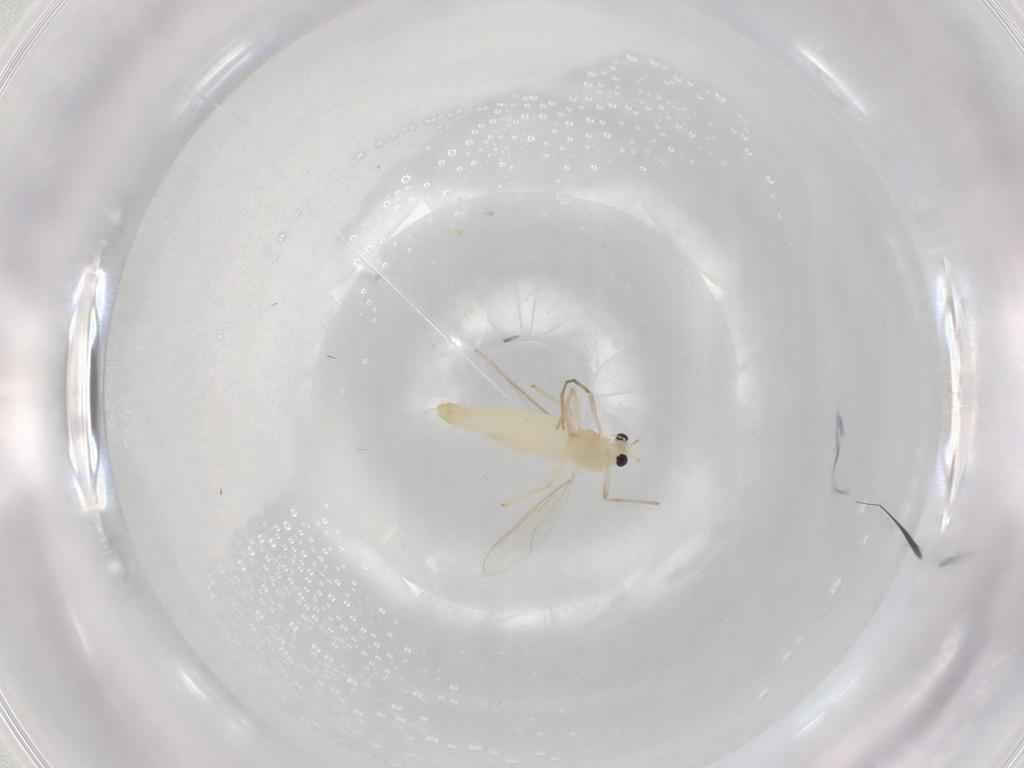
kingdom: Animalia
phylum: Arthropoda
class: Insecta
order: Diptera
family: Chironomidae
